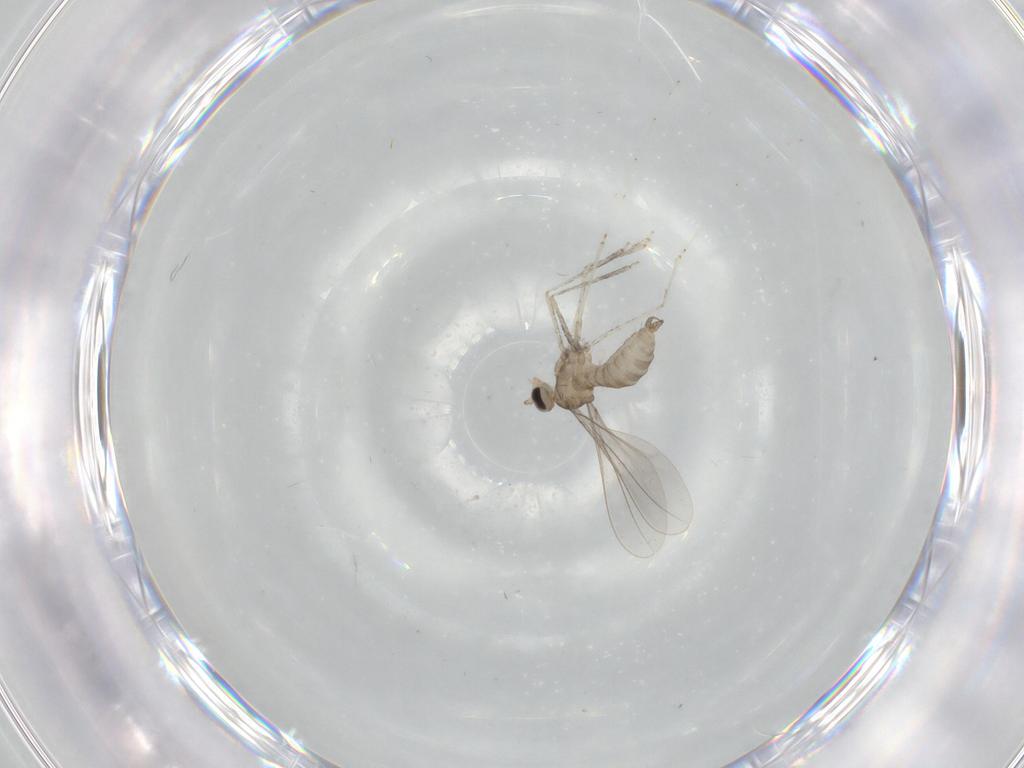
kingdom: Animalia
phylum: Arthropoda
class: Insecta
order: Diptera
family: Cecidomyiidae
